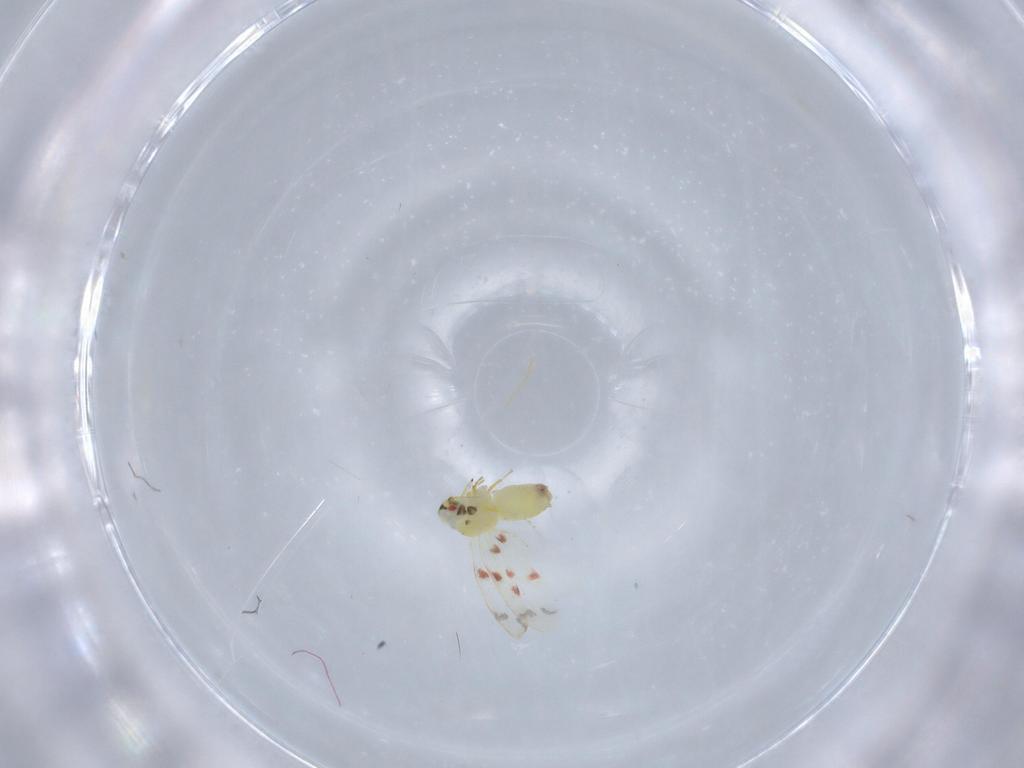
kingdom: Animalia
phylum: Arthropoda
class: Insecta
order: Hemiptera
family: Aleyrodidae
